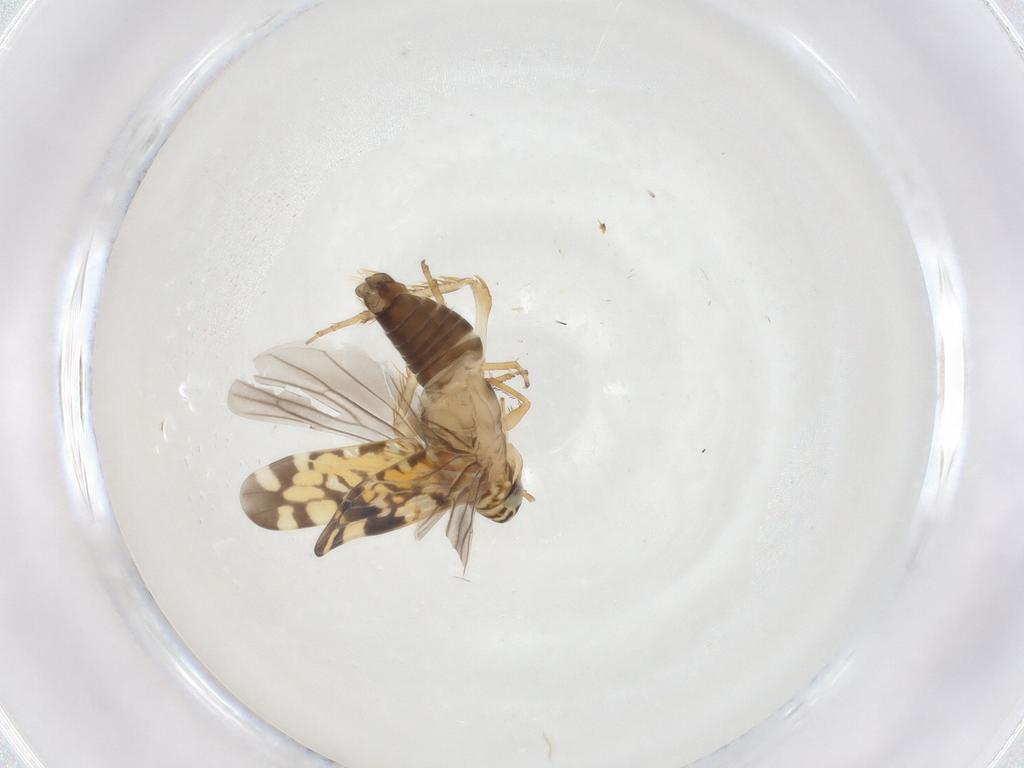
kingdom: Animalia
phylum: Arthropoda
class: Insecta
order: Hemiptera
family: Cicadellidae
